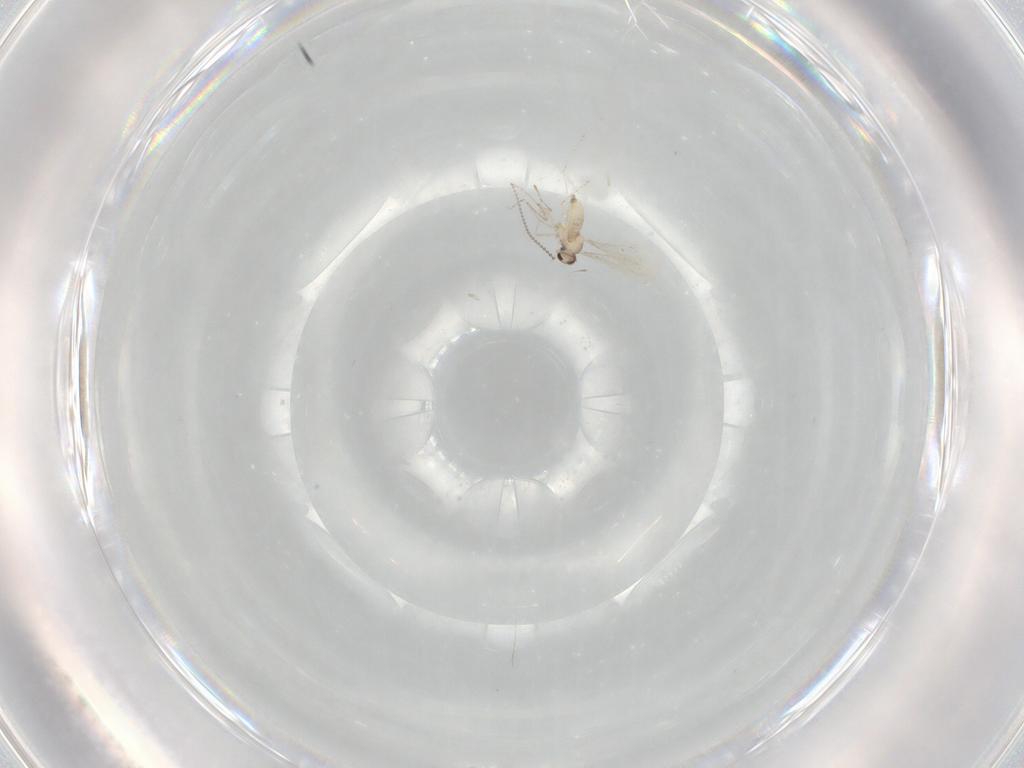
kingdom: Animalia
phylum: Arthropoda
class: Insecta
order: Diptera
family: Cecidomyiidae
